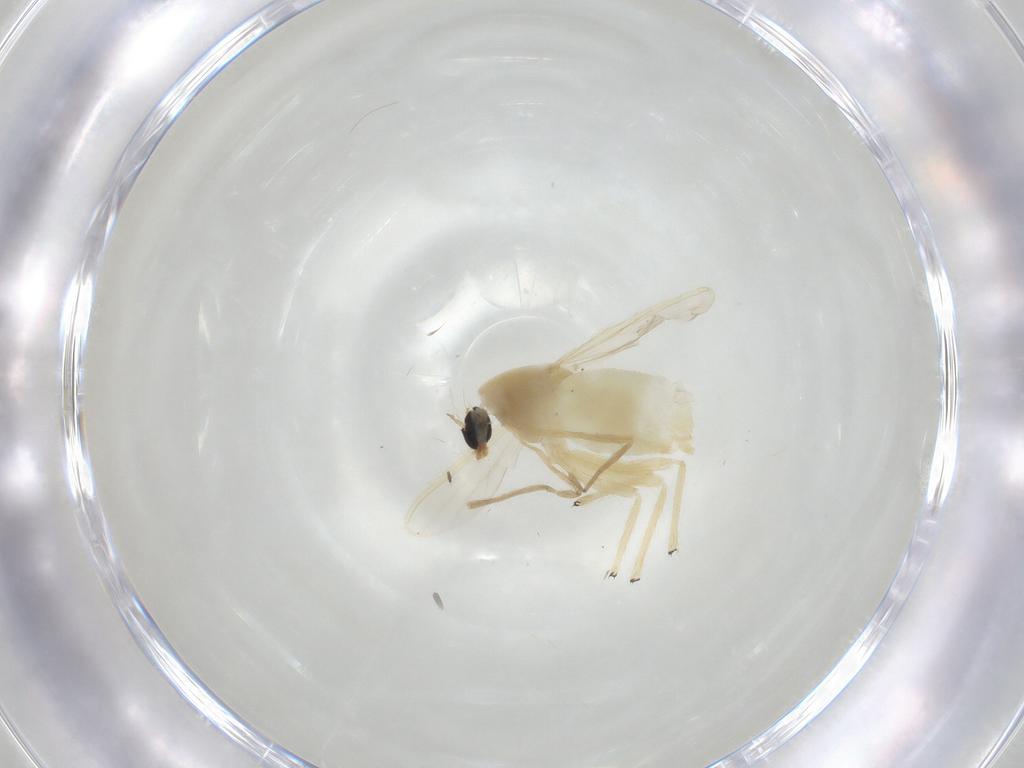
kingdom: Animalia
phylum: Arthropoda
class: Insecta
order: Diptera
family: Chironomidae
